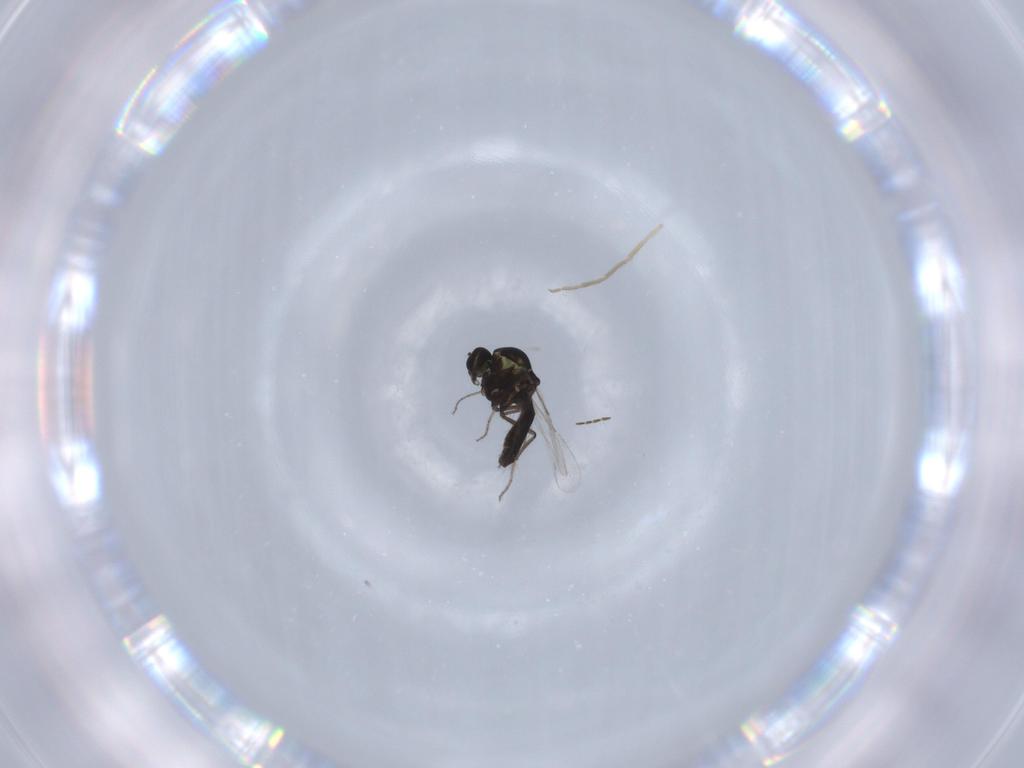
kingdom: Animalia
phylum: Arthropoda
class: Insecta
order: Diptera
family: Ceratopogonidae
